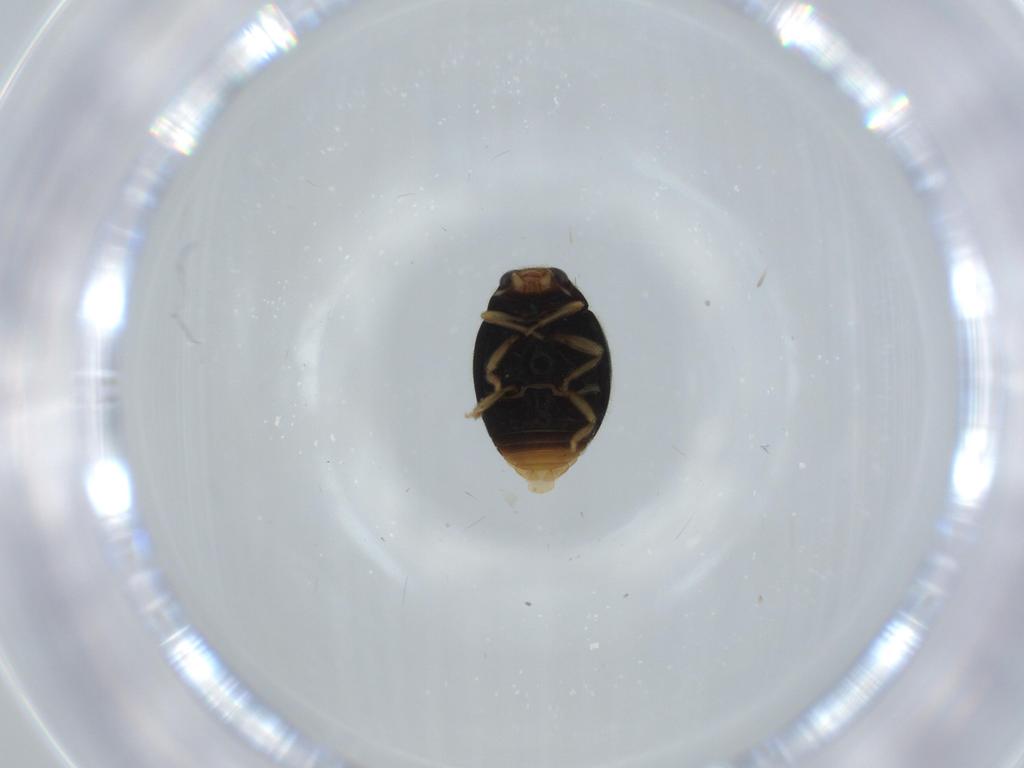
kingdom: Animalia
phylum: Arthropoda
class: Insecta
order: Coleoptera
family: Coccinellidae
